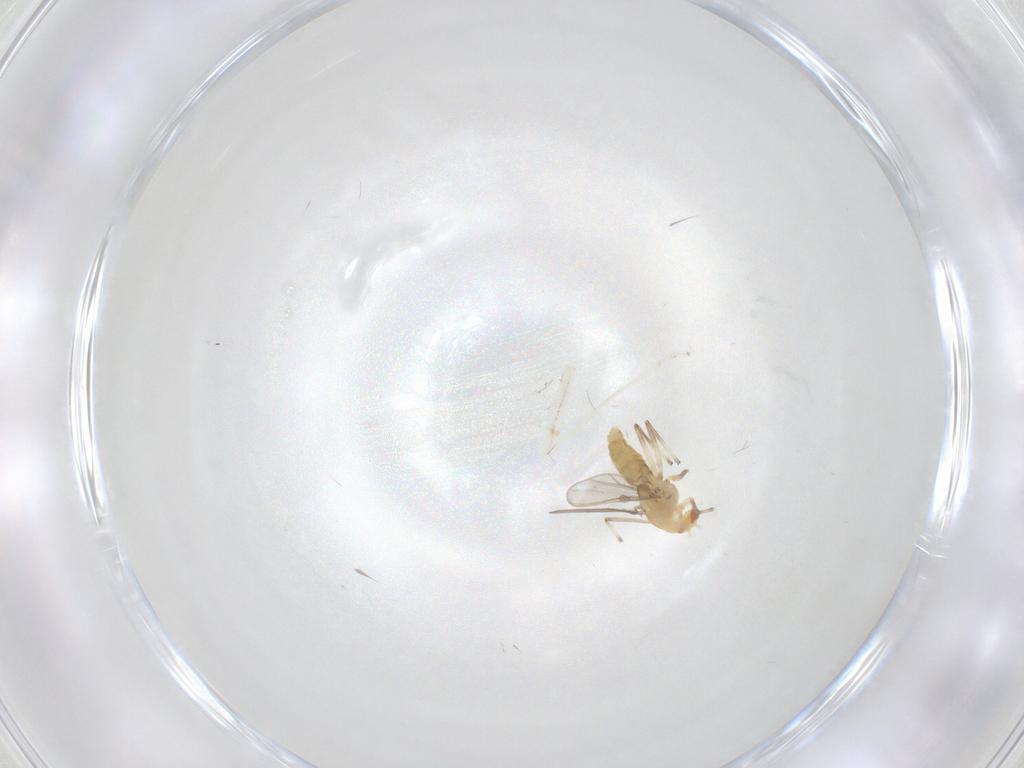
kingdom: Animalia
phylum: Arthropoda
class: Insecta
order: Diptera
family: Chironomidae
